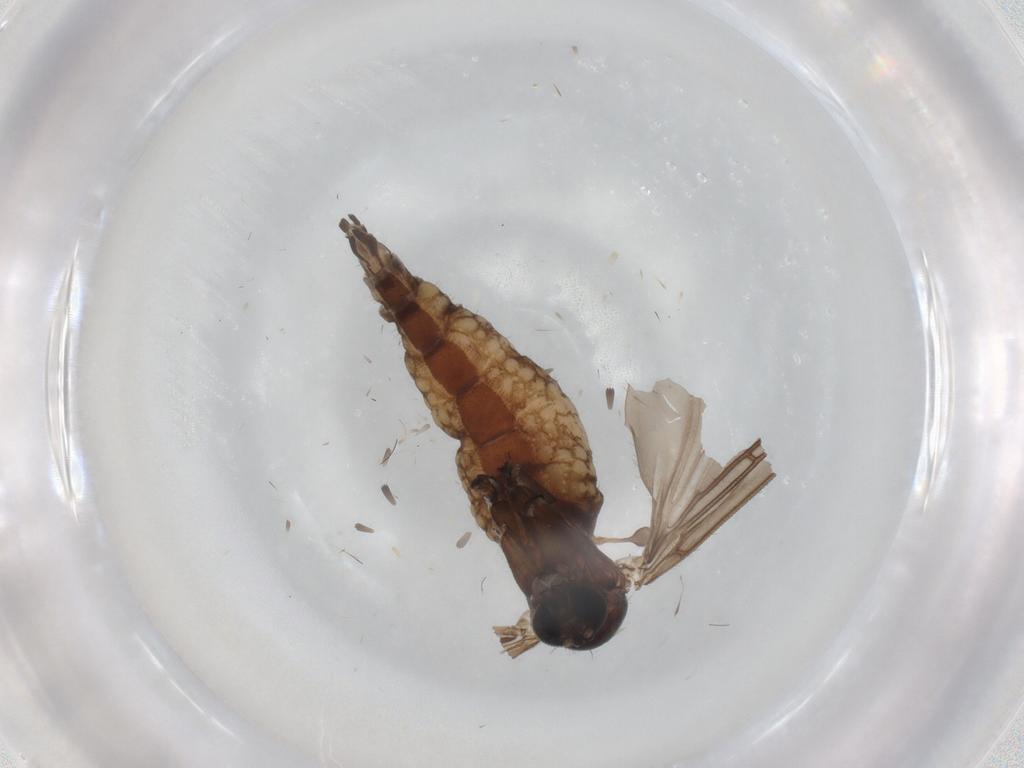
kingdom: Animalia
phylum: Arthropoda
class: Insecta
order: Diptera
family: Sciaridae
